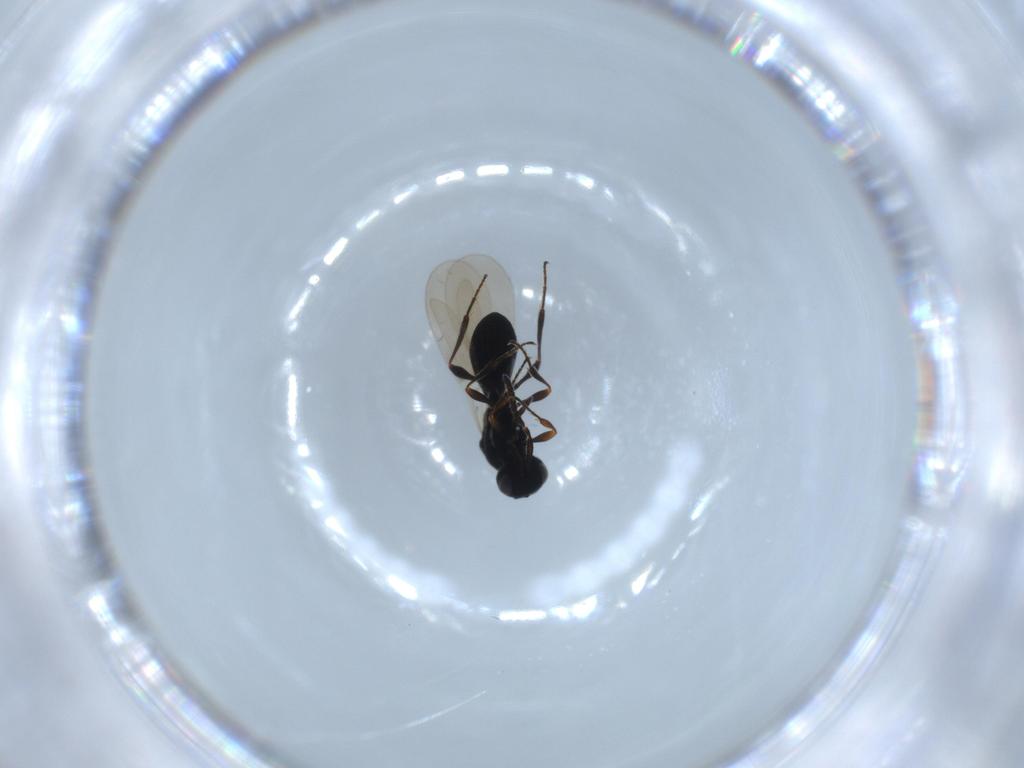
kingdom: Animalia
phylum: Arthropoda
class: Insecta
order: Hymenoptera
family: Platygastridae
